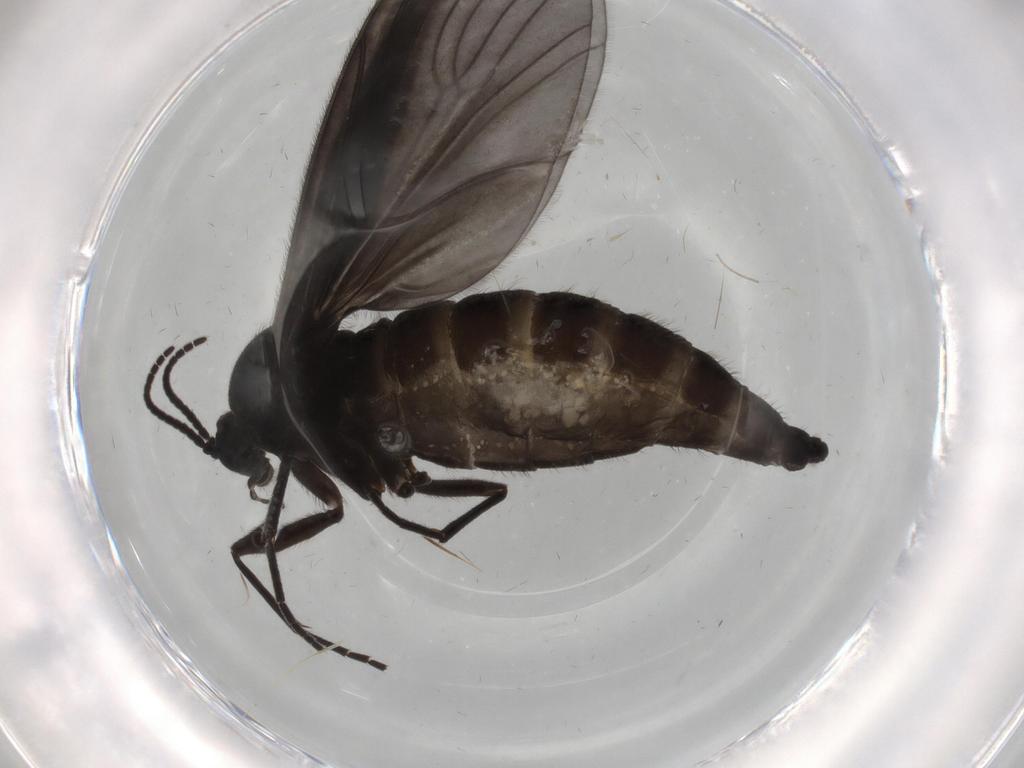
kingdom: Animalia
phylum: Arthropoda
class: Insecta
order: Diptera
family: Sciaridae
